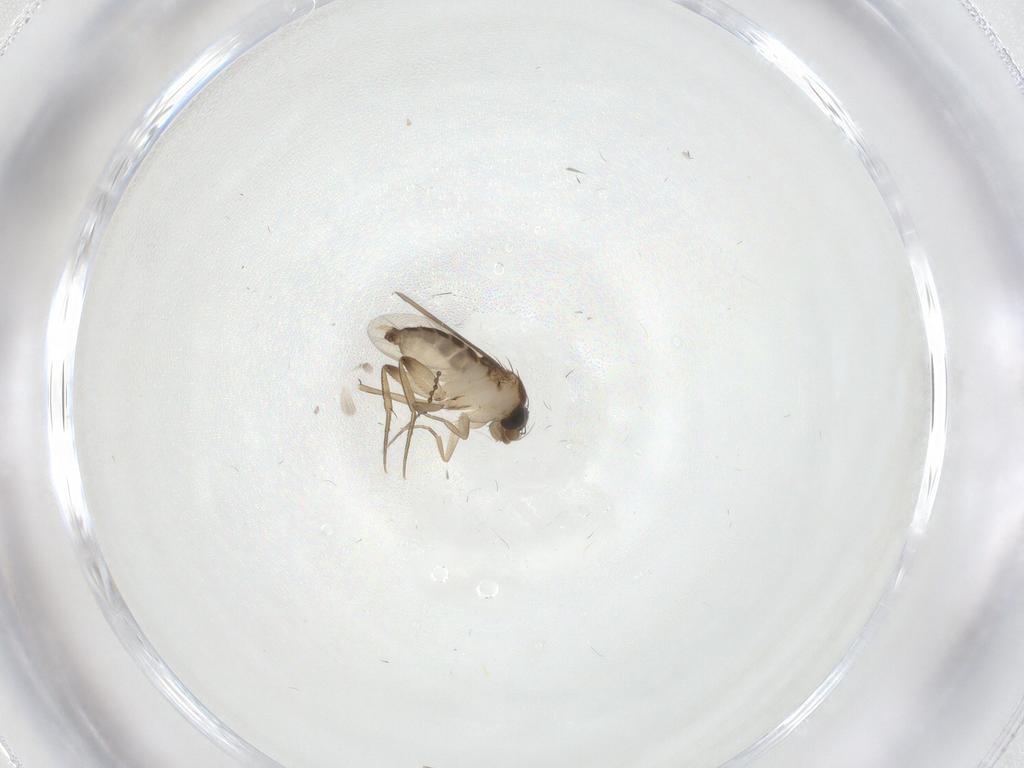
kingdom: Animalia
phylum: Arthropoda
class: Insecta
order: Diptera
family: Phoridae
